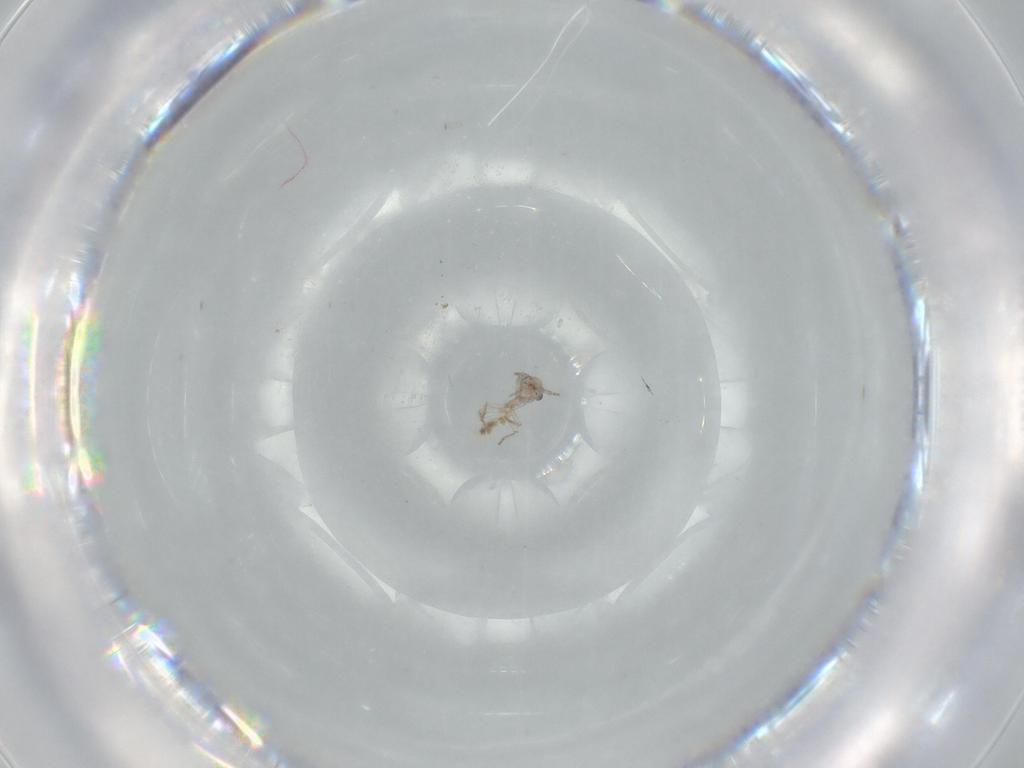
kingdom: Animalia
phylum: Arthropoda
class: Insecta
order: Psocodea
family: Lepidopsocidae
